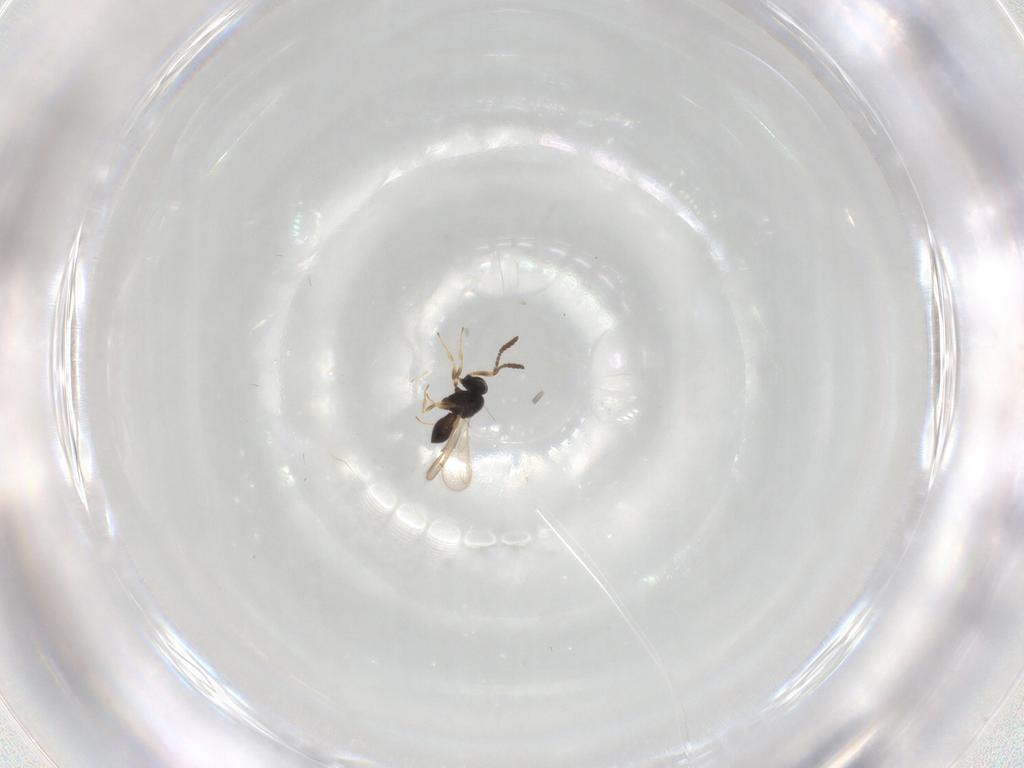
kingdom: Animalia
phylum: Arthropoda
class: Insecta
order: Hymenoptera
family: Scelionidae
